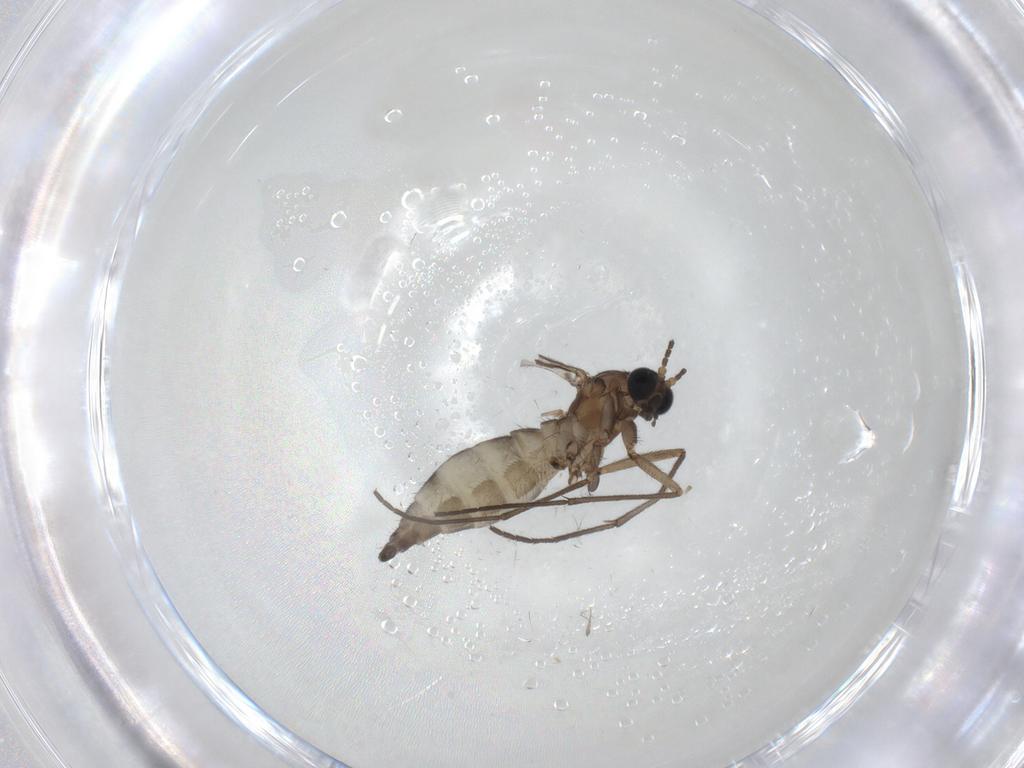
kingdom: Animalia
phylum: Arthropoda
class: Insecta
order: Diptera
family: Sciaridae
